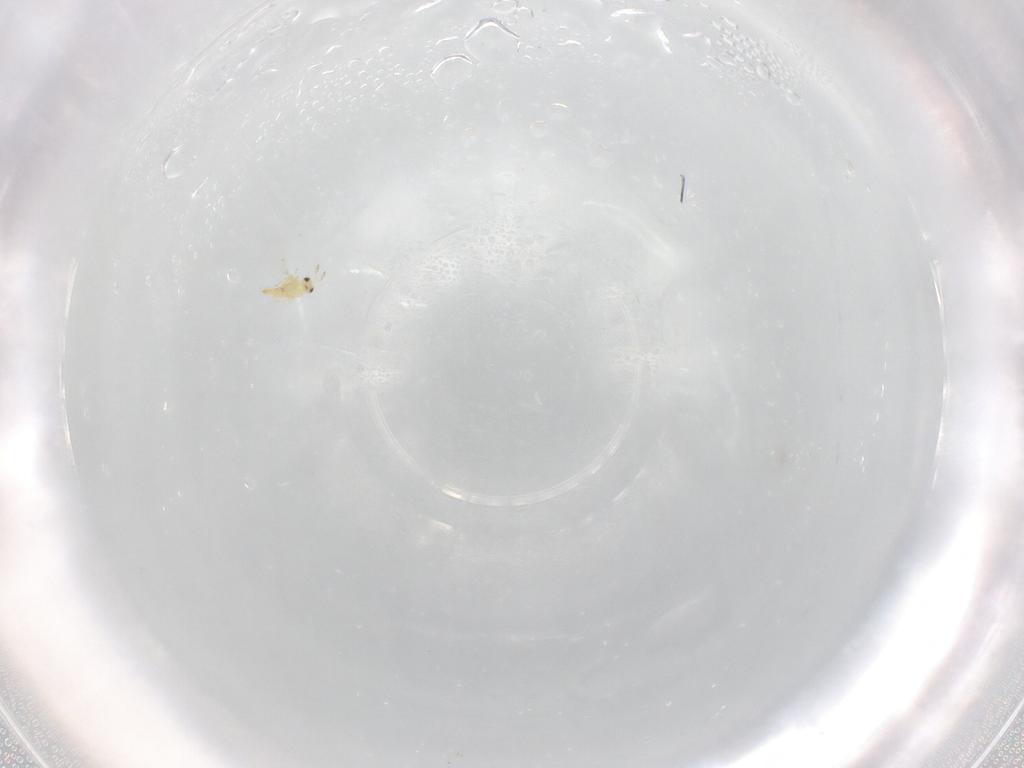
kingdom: Animalia
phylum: Arthropoda
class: Insecta
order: Hymenoptera
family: Trichogrammatidae
